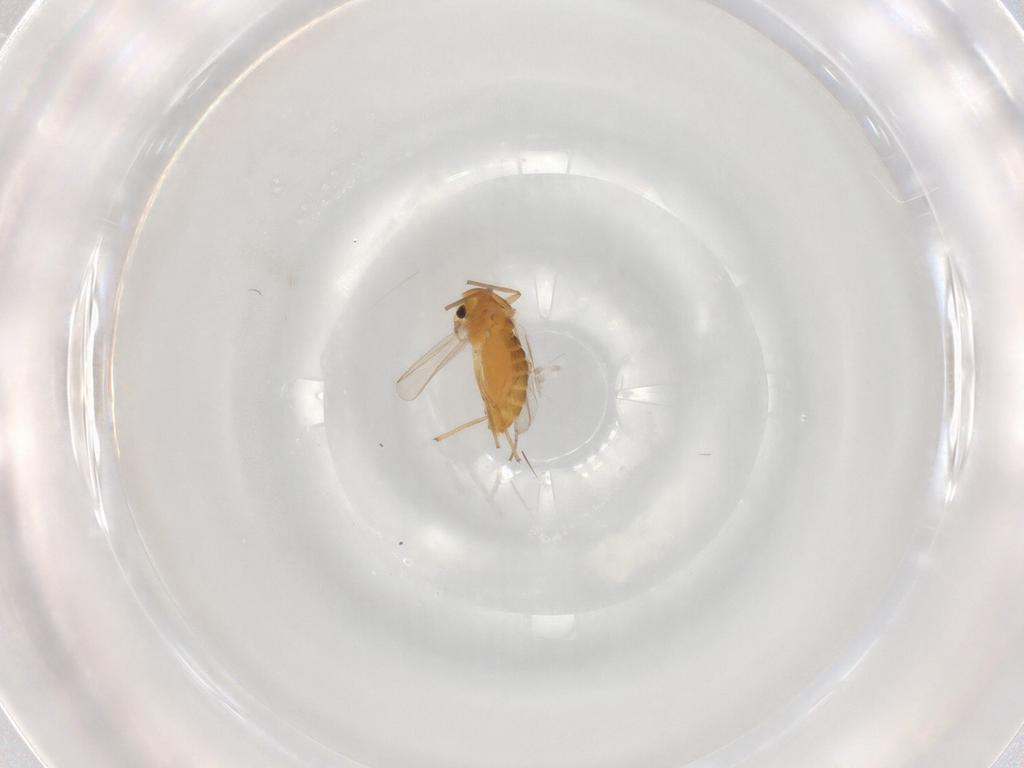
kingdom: Animalia
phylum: Arthropoda
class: Insecta
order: Diptera
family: Chironomidae
